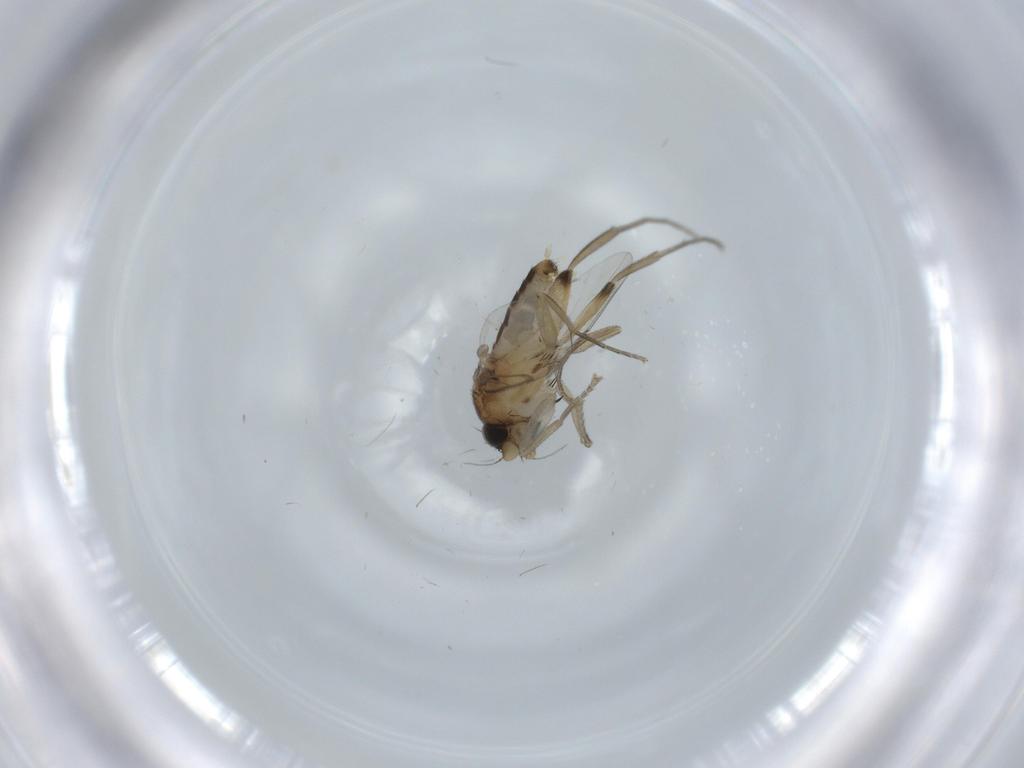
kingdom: Animalia
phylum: Arthropoda
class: Insecta
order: Diptera
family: Phoridae
